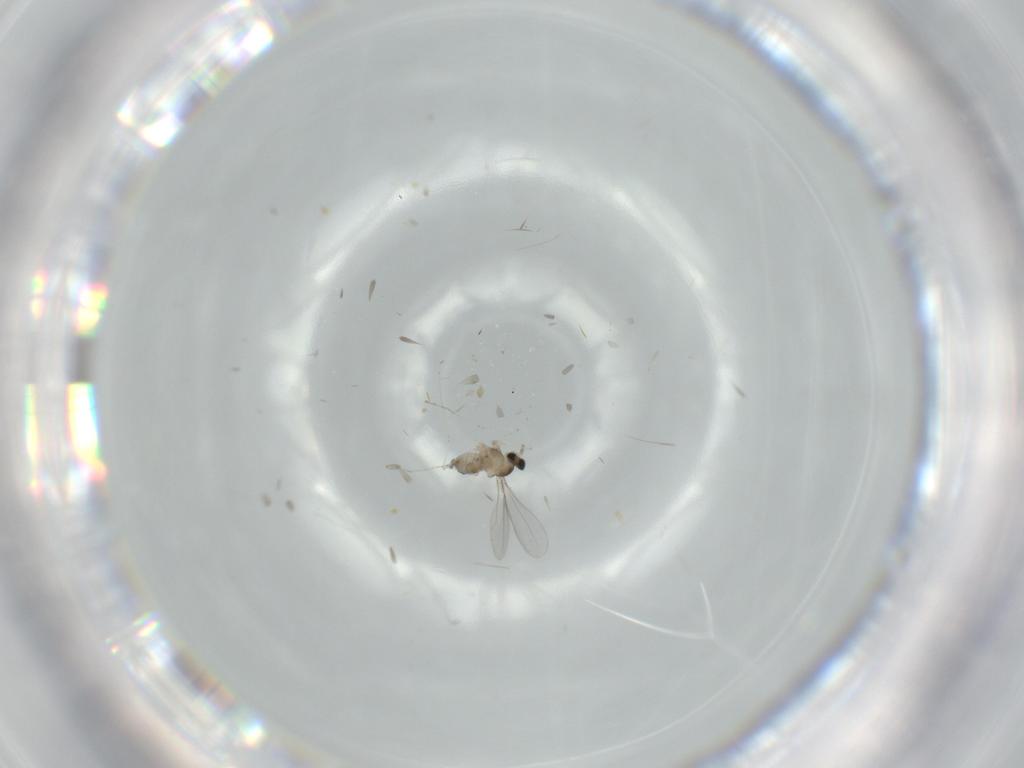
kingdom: Animalia
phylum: Arthropoda
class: Insecta
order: Diptera
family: Cecidomyiidae
